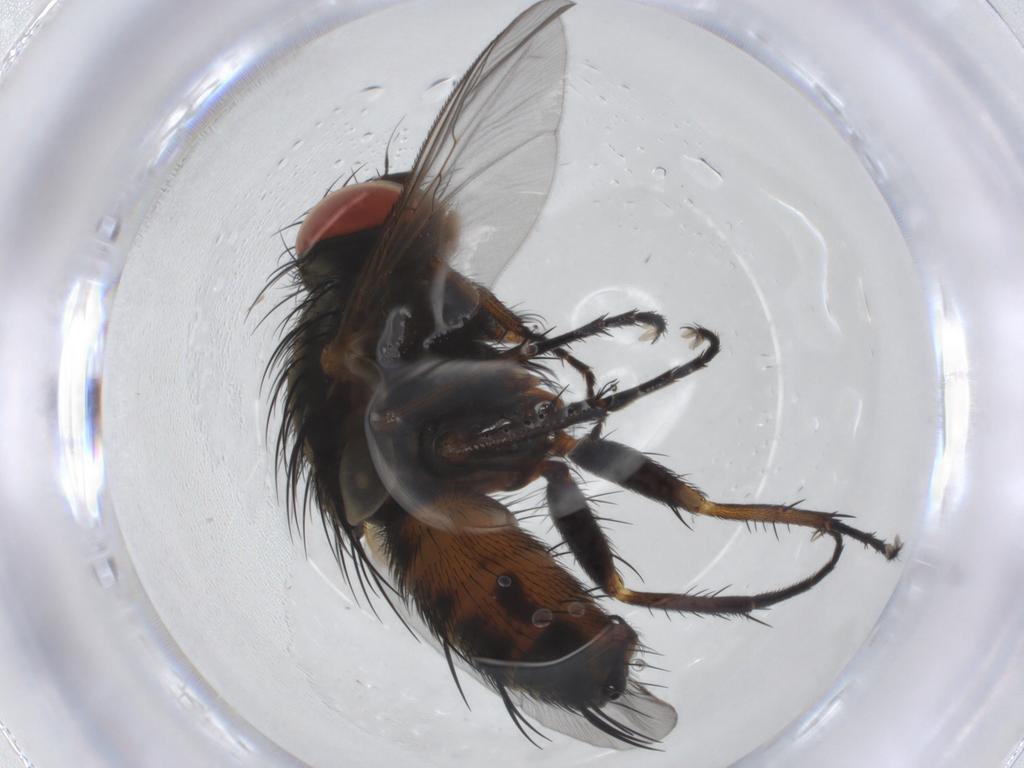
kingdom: Animalia
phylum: Arthropoda
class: Insecta
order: Diptera
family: Sarcophagidae
